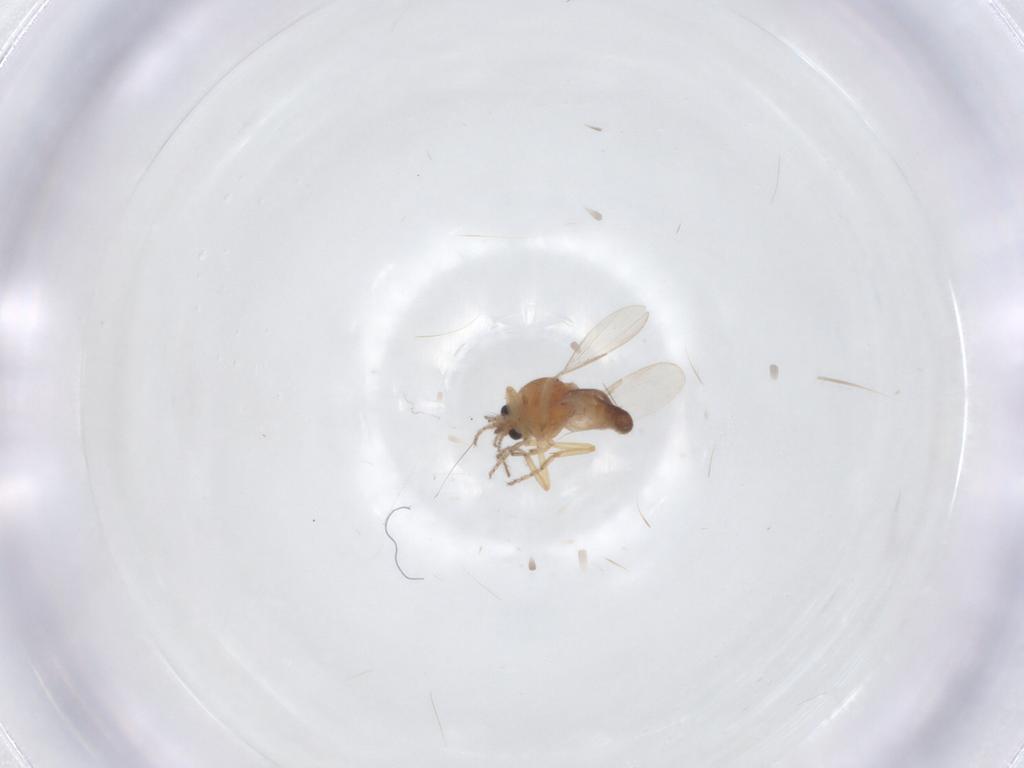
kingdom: Animalia
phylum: Arthropoda
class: Insecta
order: Diptera
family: Ceratopogonidae
